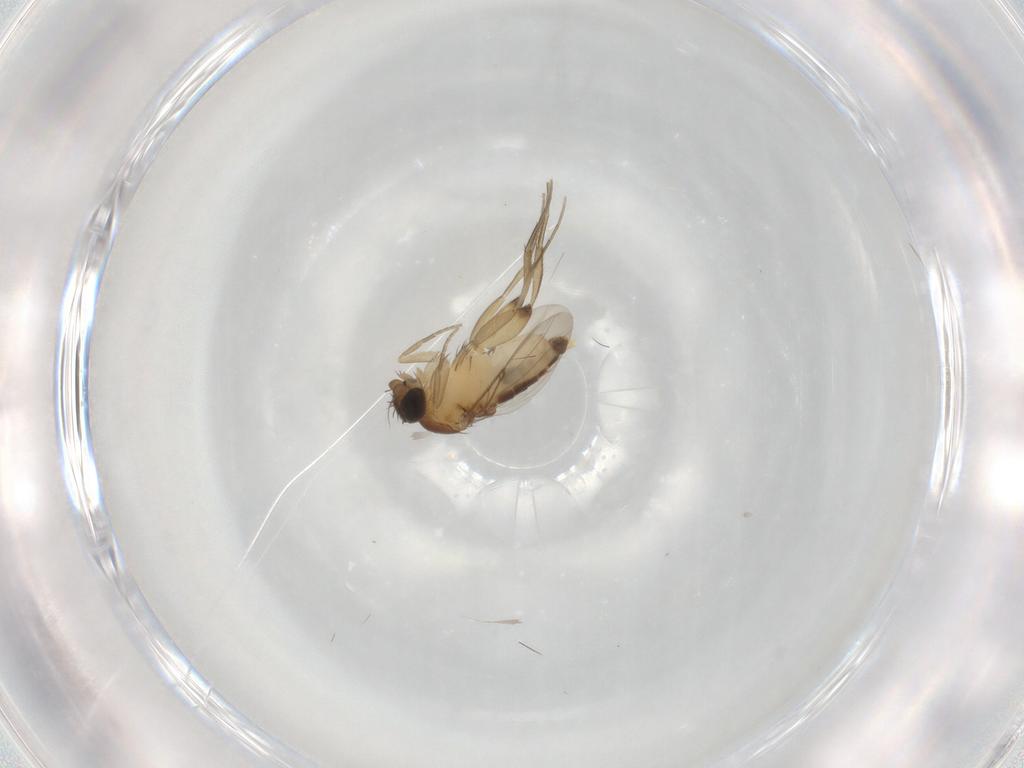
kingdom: Animalia
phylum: Arthropoda
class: Insecta
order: Diptera
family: Phoridae
